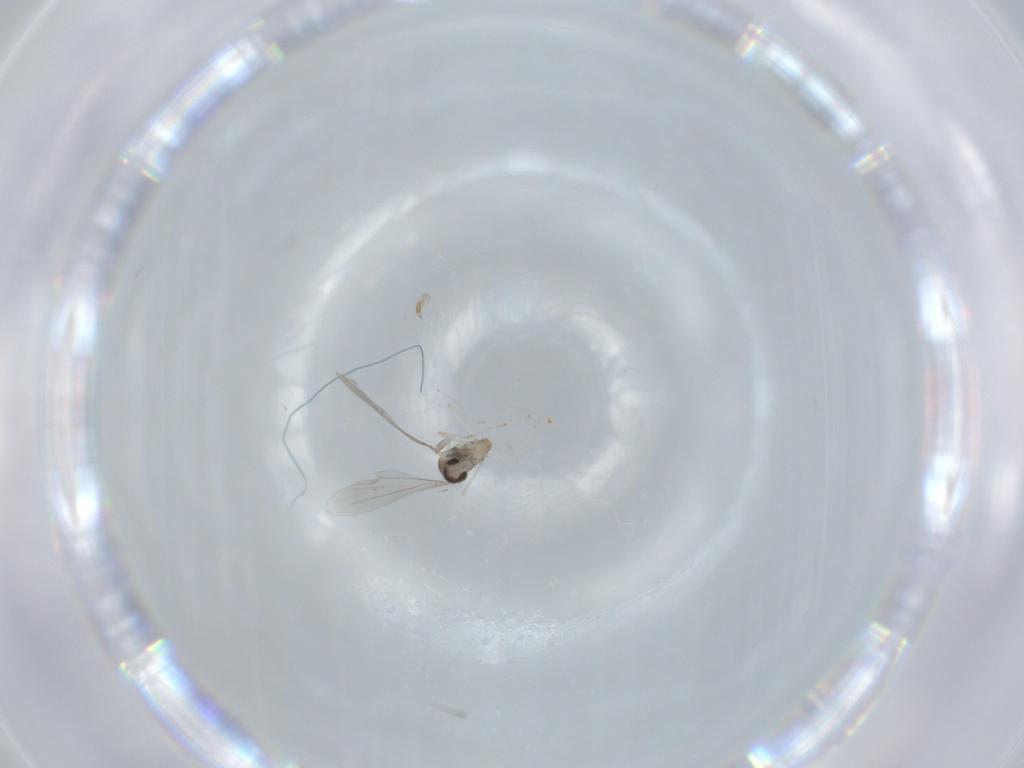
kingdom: Animalia
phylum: Arthropoda
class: Insecta
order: Diptera
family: Cecidomyiidae
